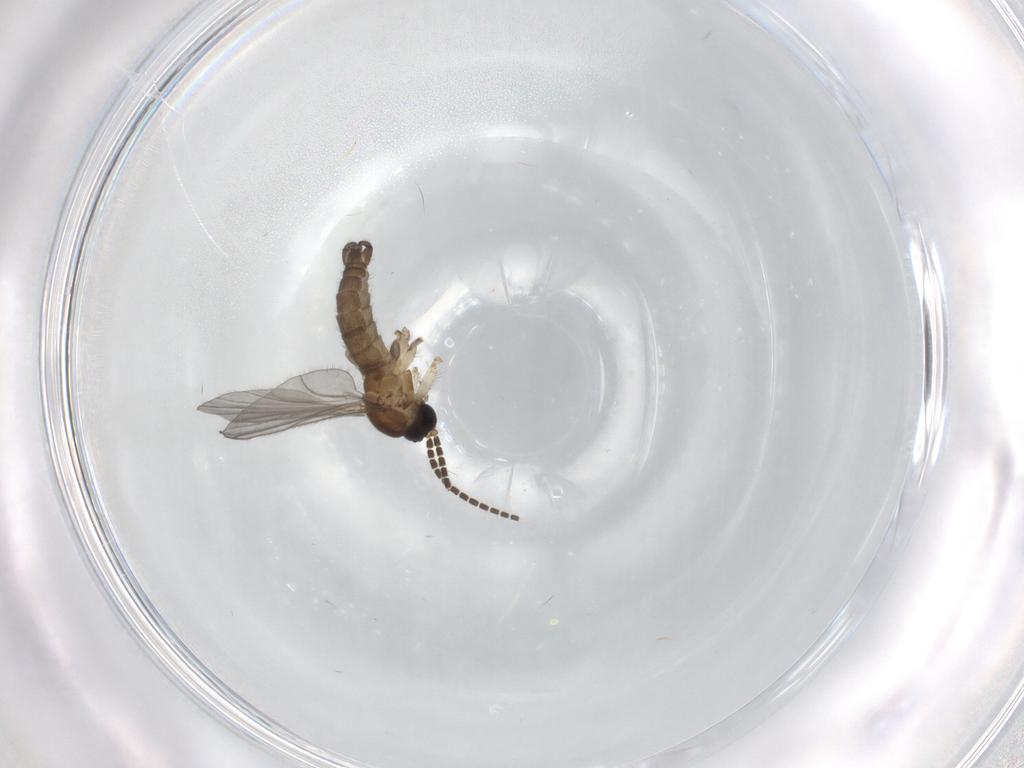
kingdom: Animalia
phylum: Arthropoda
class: Insecta
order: Diptera
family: Sciaridae
